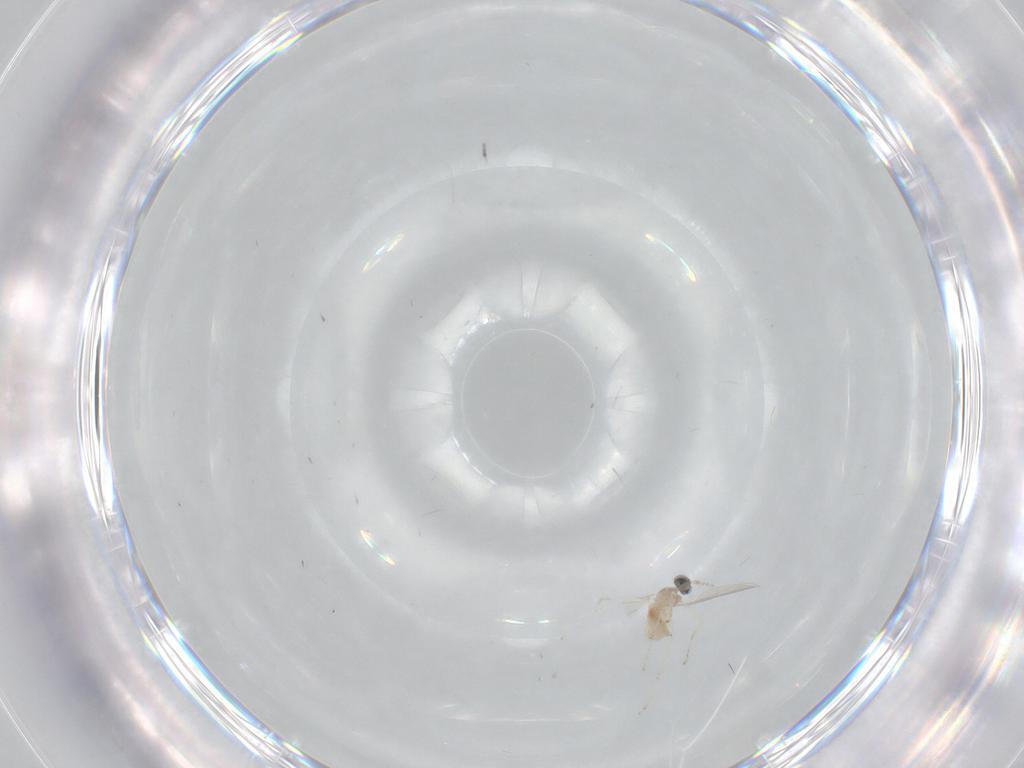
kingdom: Animalia
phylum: Arthropoda
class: Insecta
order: Diptera
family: Cecidomyiidae
